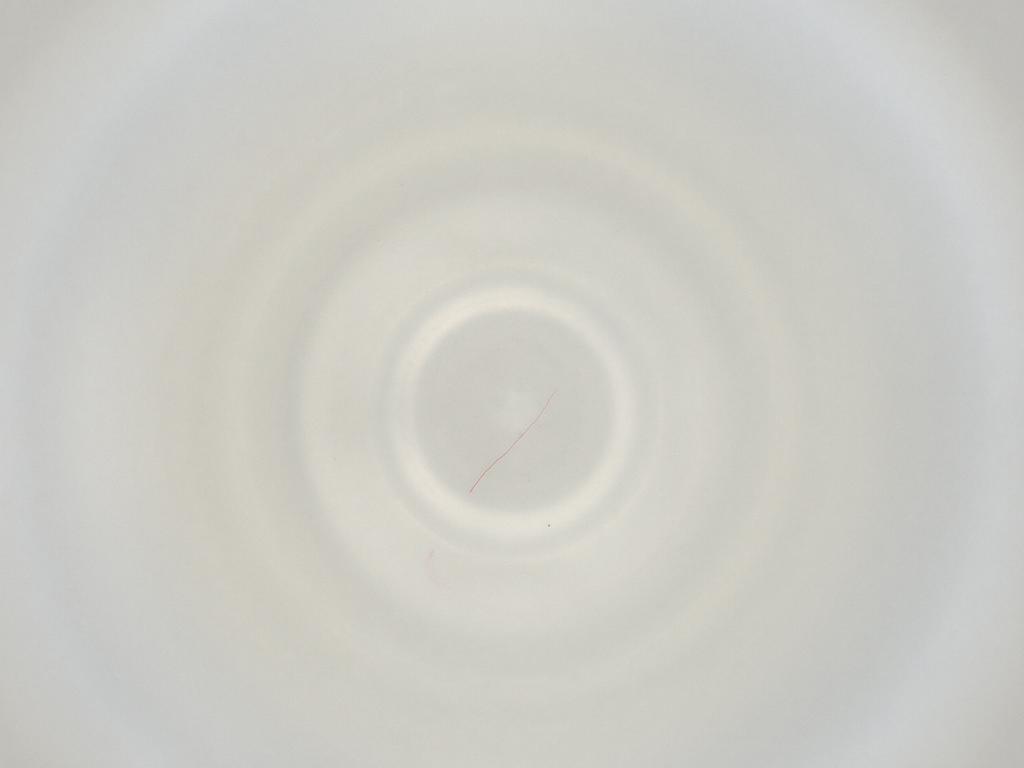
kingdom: Animalia
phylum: Arthropoda
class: Insecta
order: Diptera
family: Cecidomyiidae
